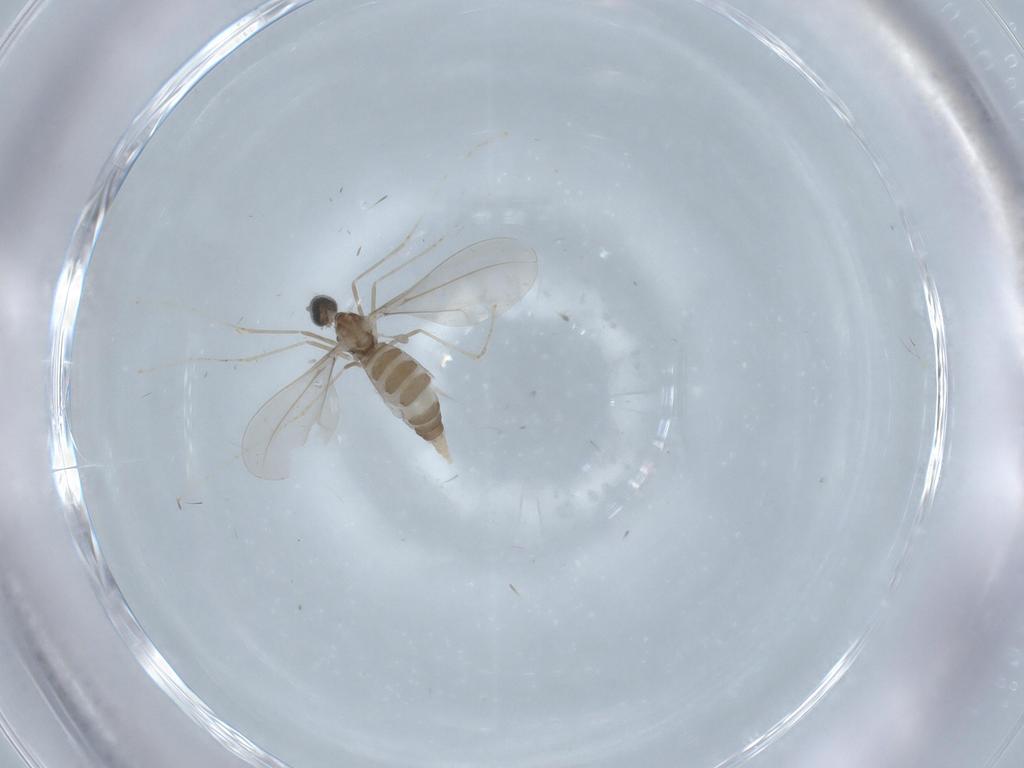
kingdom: Animalia
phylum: Arthropoda
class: Insecta
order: Diptera
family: Cecidomyiidae
